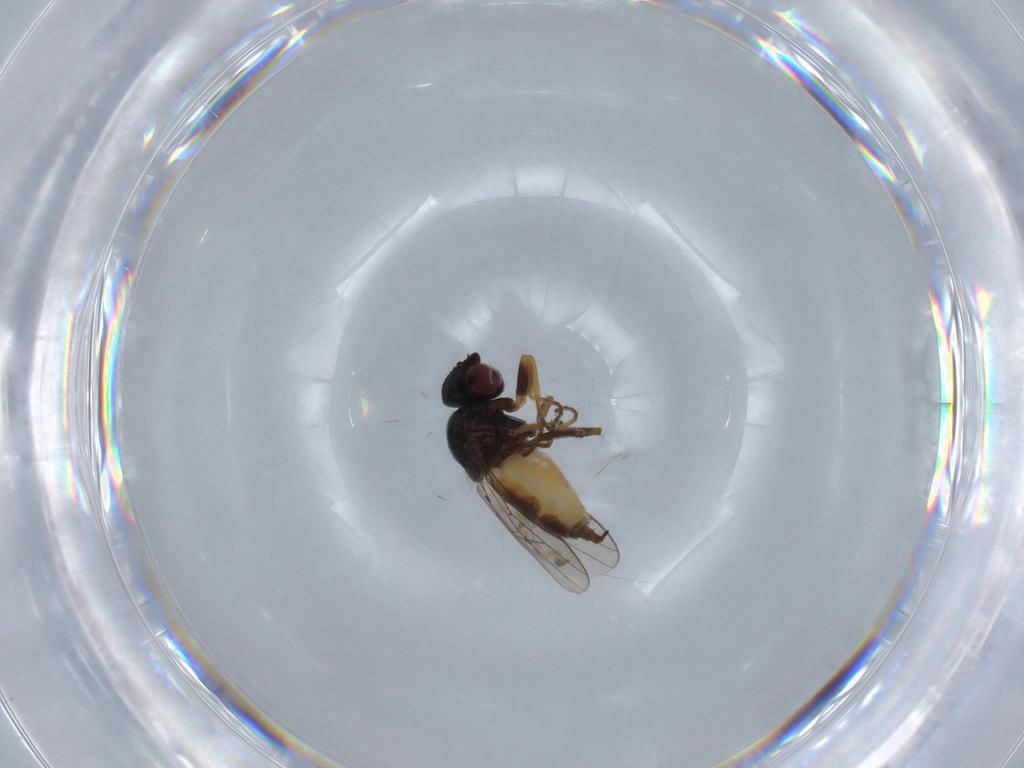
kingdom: Animalia
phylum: Arthropoda
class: Insecta
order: Diptera
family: Chloropidae
